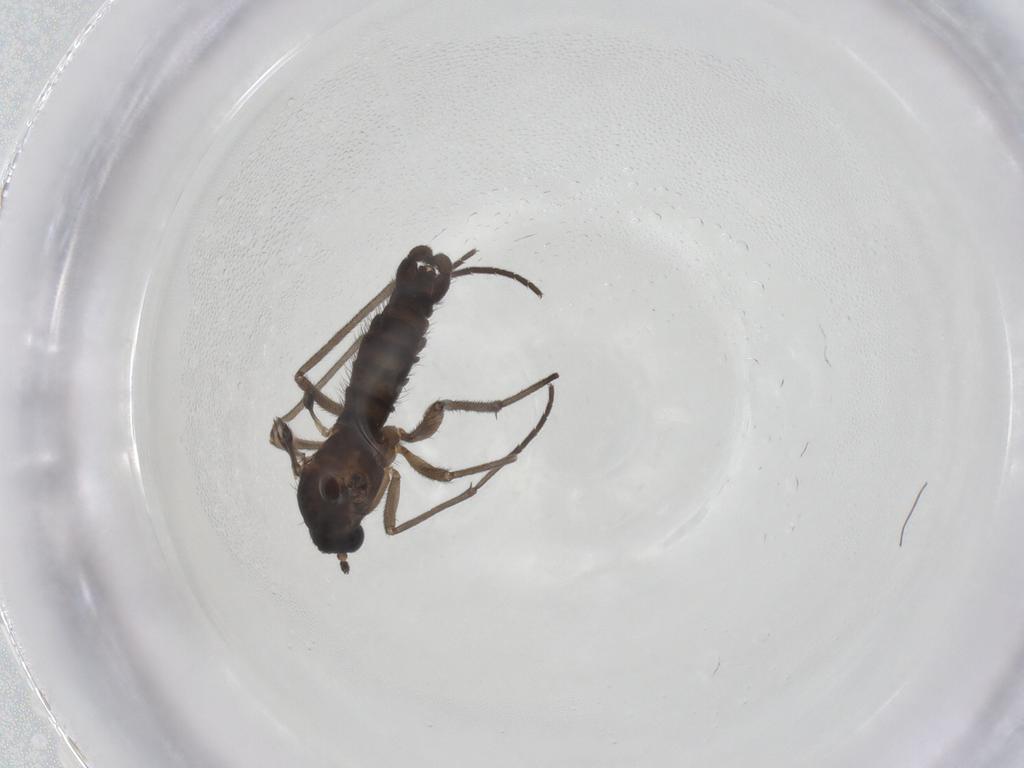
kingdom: Animalia
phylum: Arthropoda
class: Insecta
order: Diptera
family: Sciaridae
